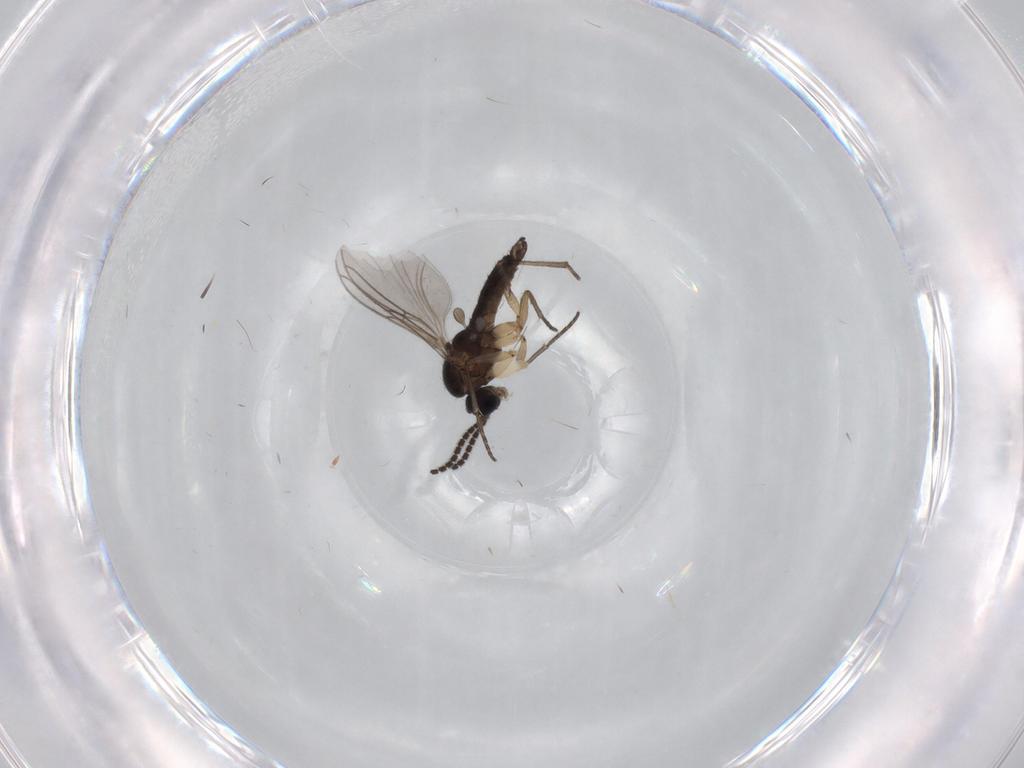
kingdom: Animalia
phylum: Arthropoda
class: Insecta
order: Diptera
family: Sciaridae
